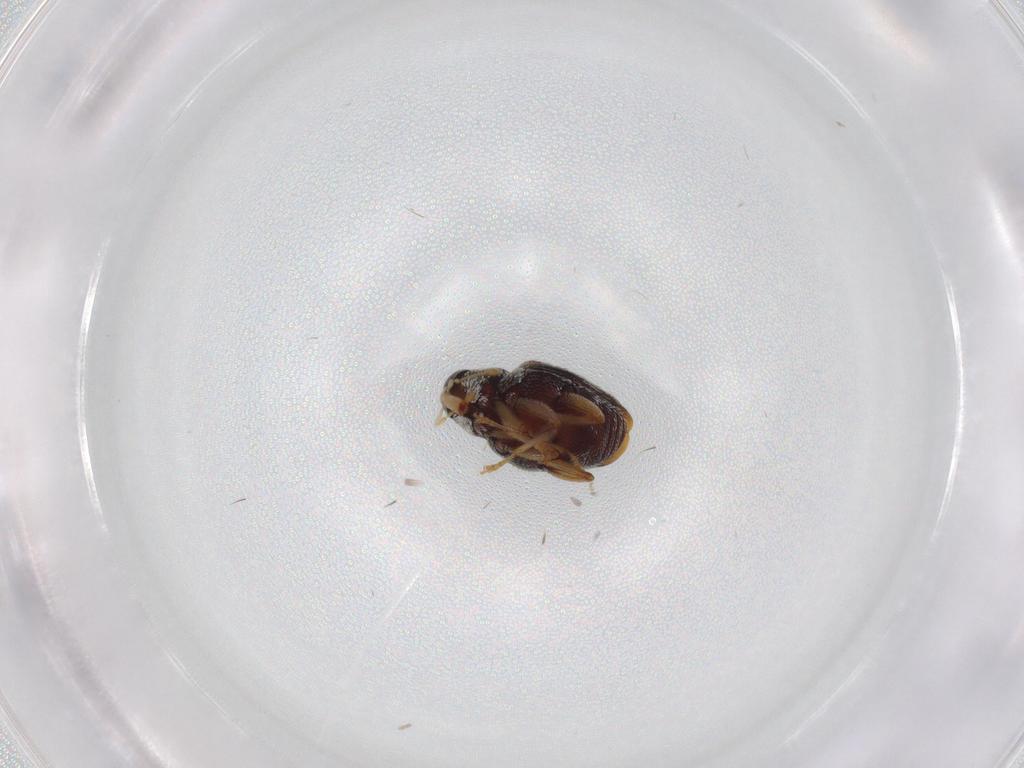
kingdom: Animalia
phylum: Arthropoda
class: Insecta
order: Coleoptera
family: Curculionidae
